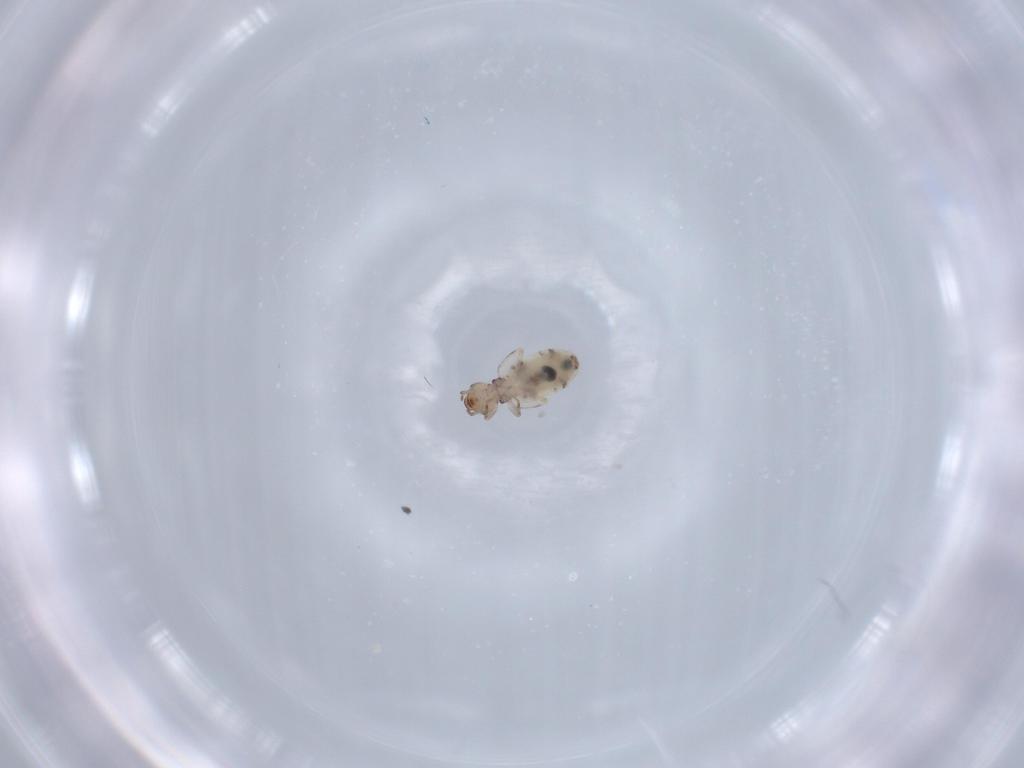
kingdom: Animalia
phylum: Arthropoda
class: Insecta
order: Psocodea
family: Liposcelididae
